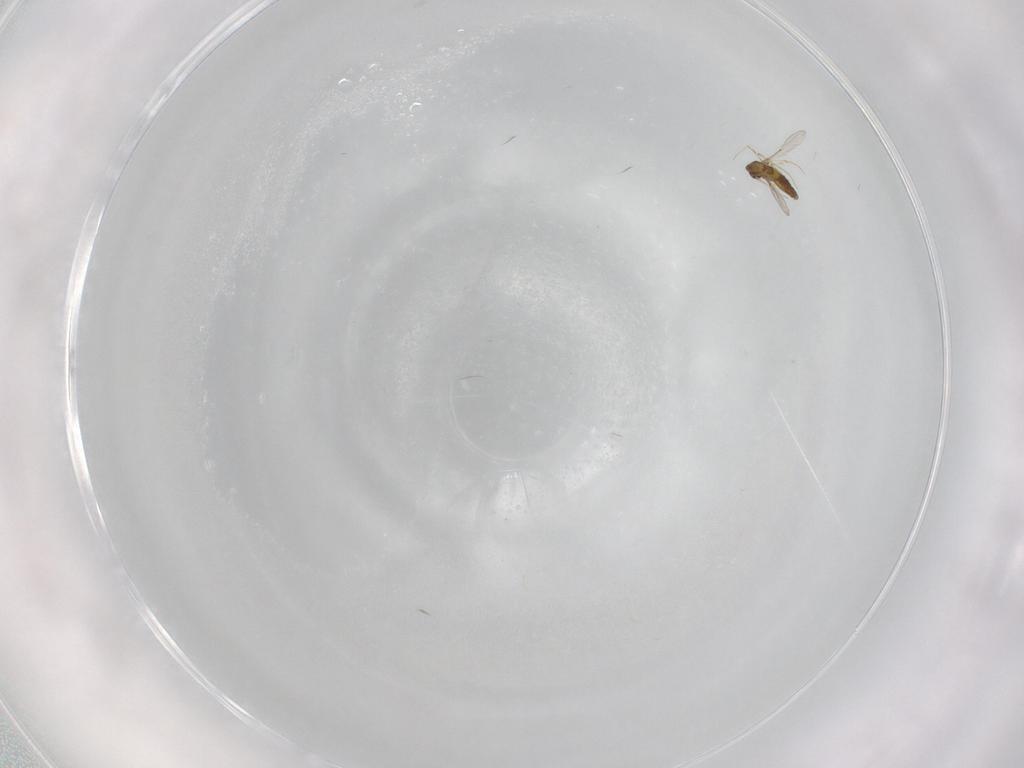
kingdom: Animalia
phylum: Arthropoda
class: Insecta
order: Diptera
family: Chironomidae
